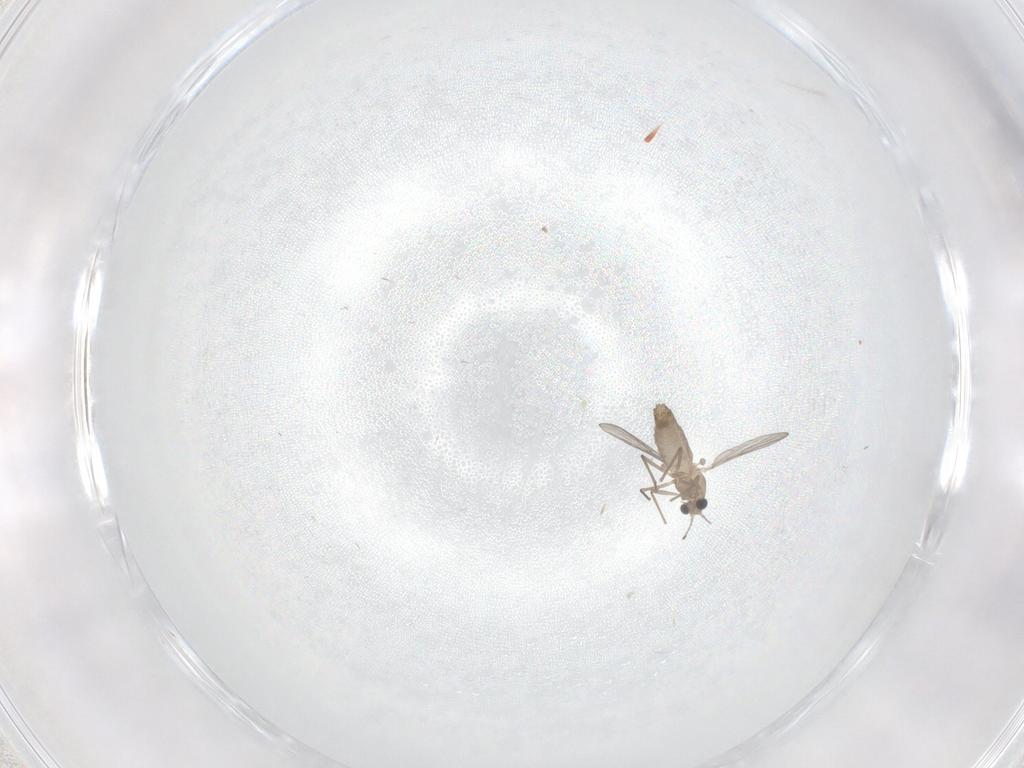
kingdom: Animalia
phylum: Arthropoda
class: Insecta
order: Diptera
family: Chironomidae
